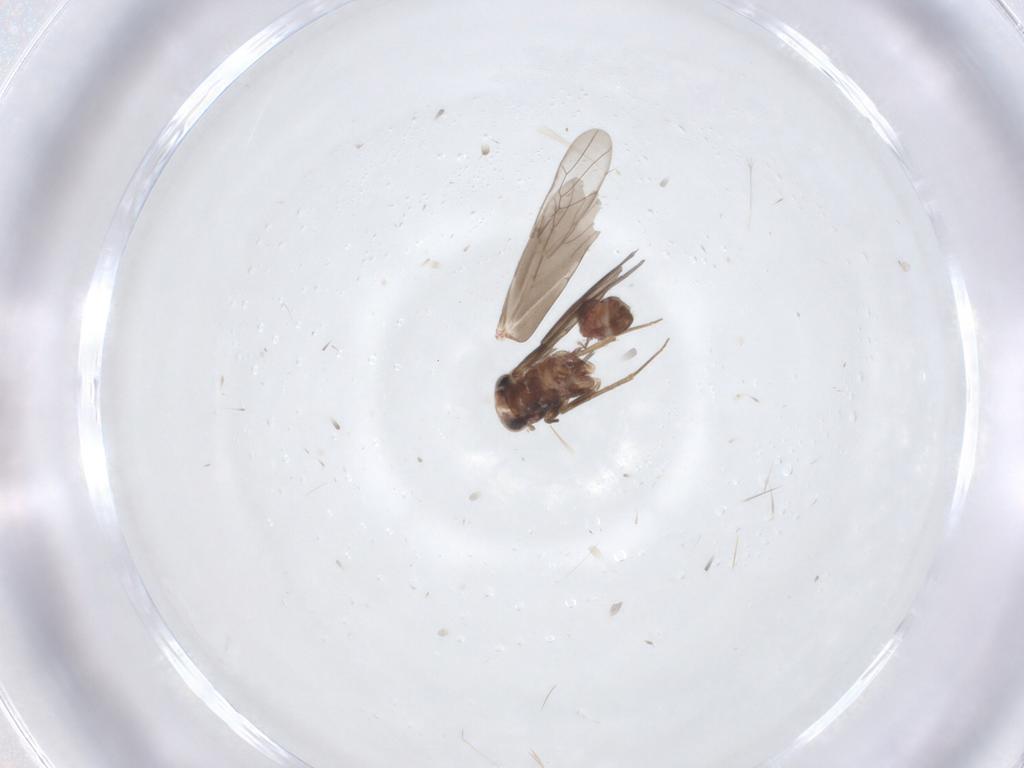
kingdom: Animalia
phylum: Arthropoda
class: Insecta
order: Psocodea
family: Amphientomidae
